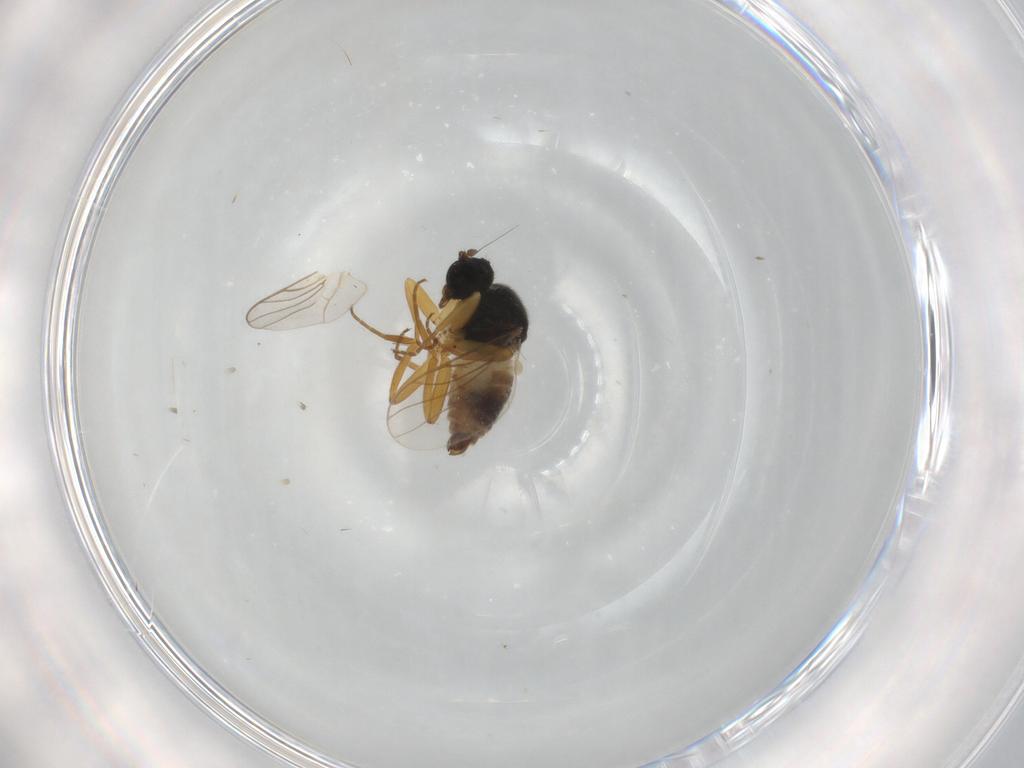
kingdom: Animalia
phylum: Arthropoda
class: Insecta
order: Diptera
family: Hybotidae
